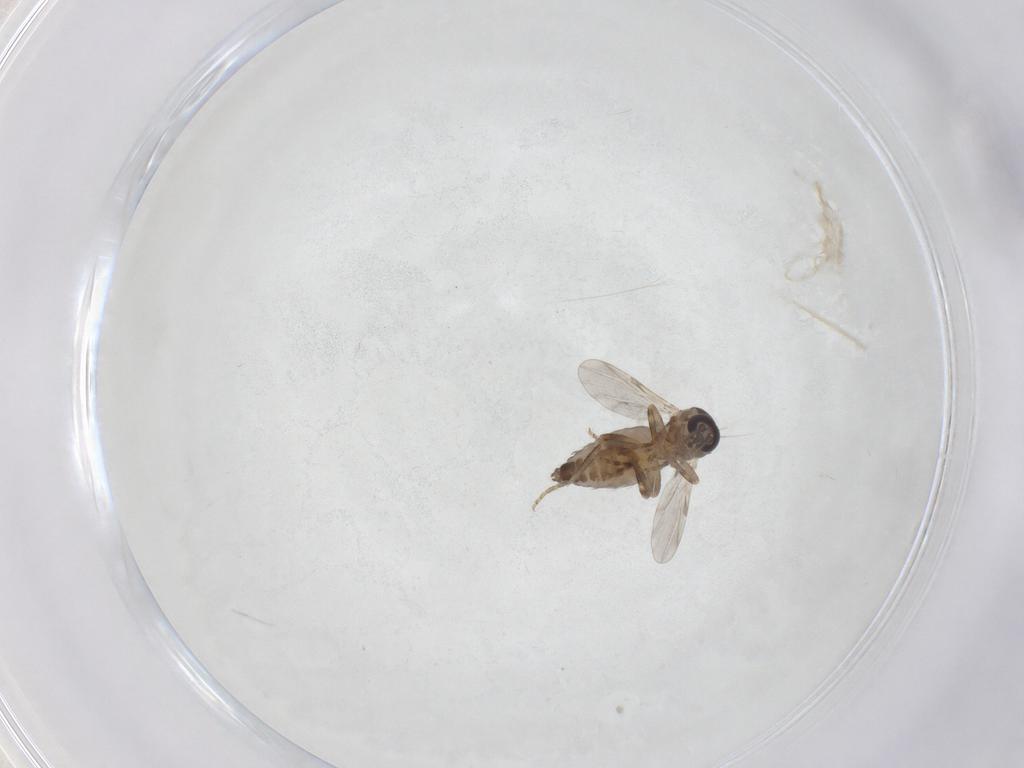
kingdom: Animalia
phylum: Arthropoda
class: Insecta
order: Diptera
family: Ceratopogonidae
